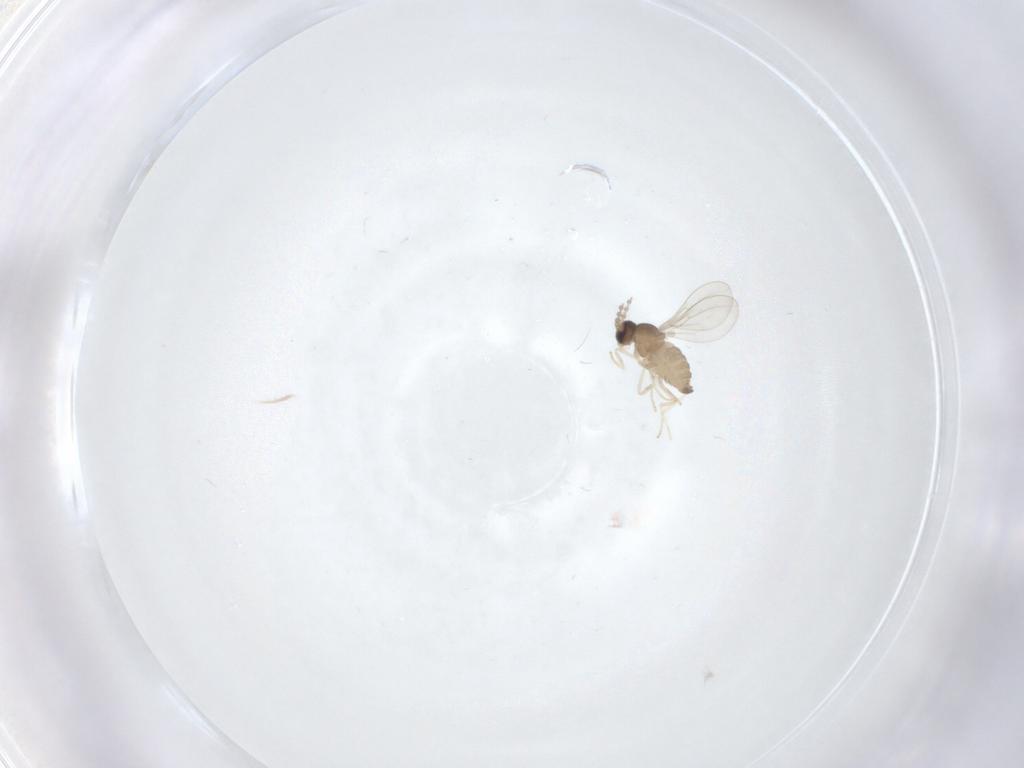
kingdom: Animalia
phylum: Arthropoda
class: Insecta
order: Diptera
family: Cecidomyiidae
